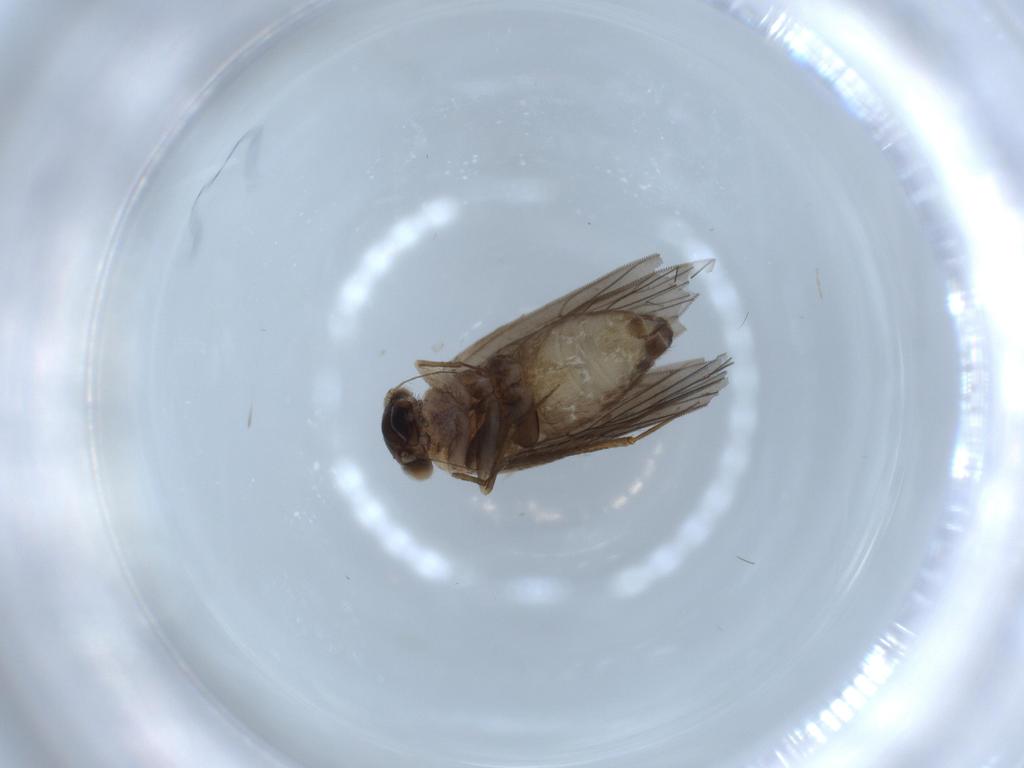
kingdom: Animalia
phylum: Arthropoda
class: Insecta
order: Psocodea
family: Lepidopsocidae
